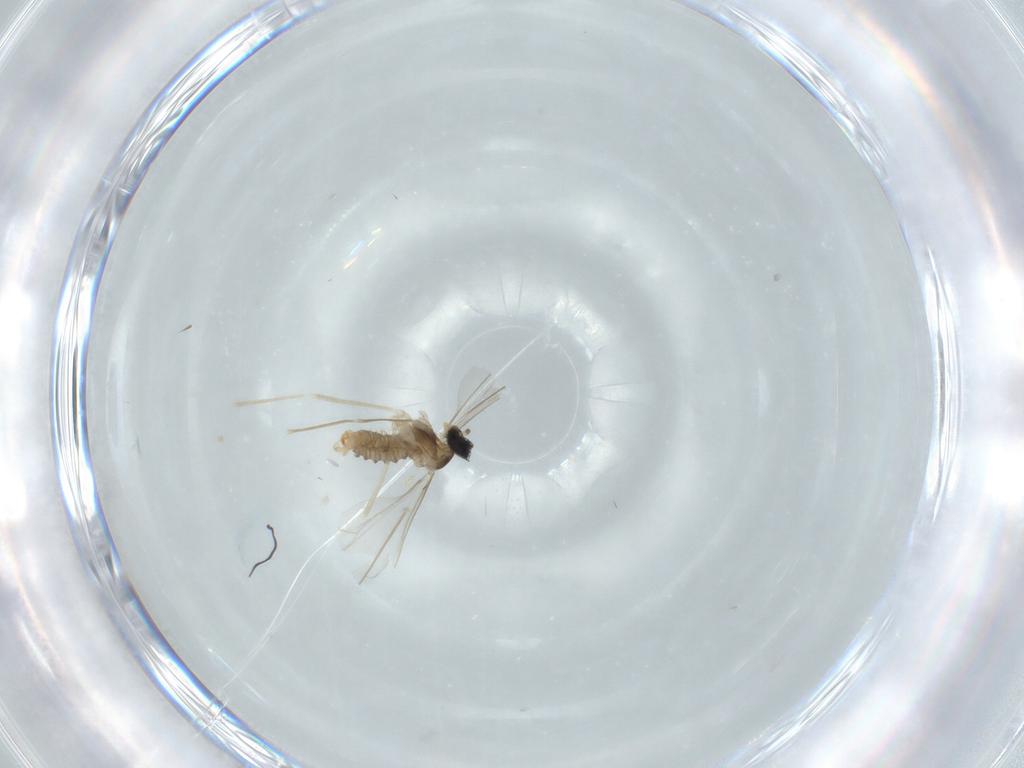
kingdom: Animalia
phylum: Arthropoda
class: Insecta
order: Diptera
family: Cecidomyiidae
